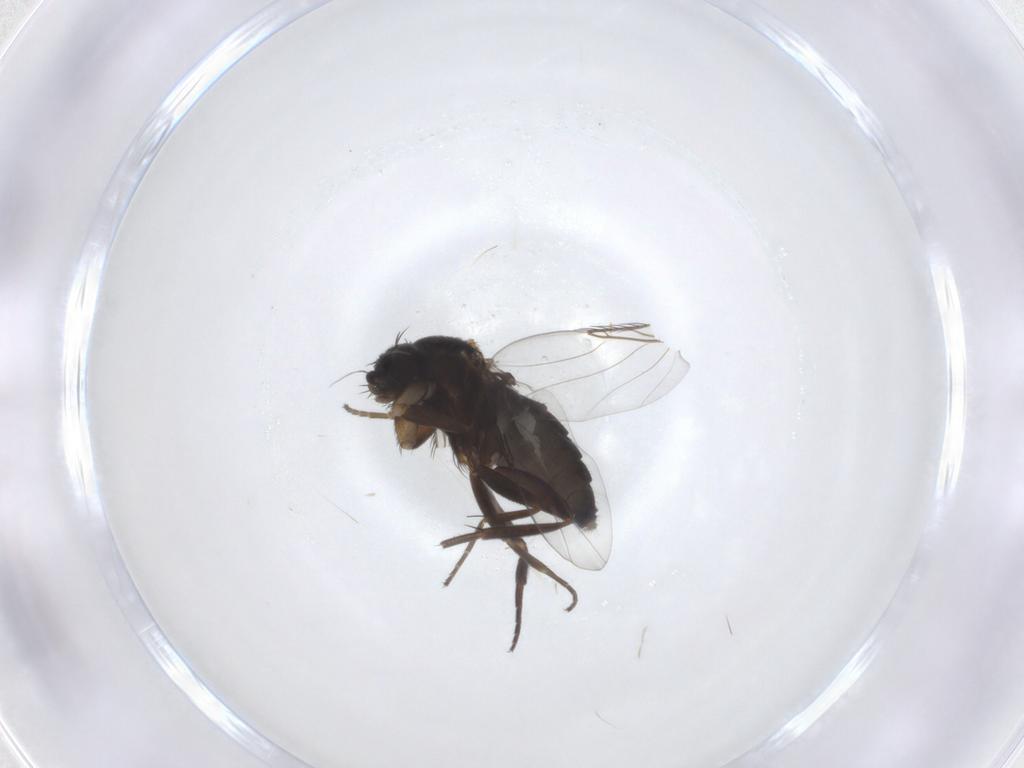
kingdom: Animalia
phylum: Arthropoda
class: Insecta
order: Diptera
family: Phoridae
